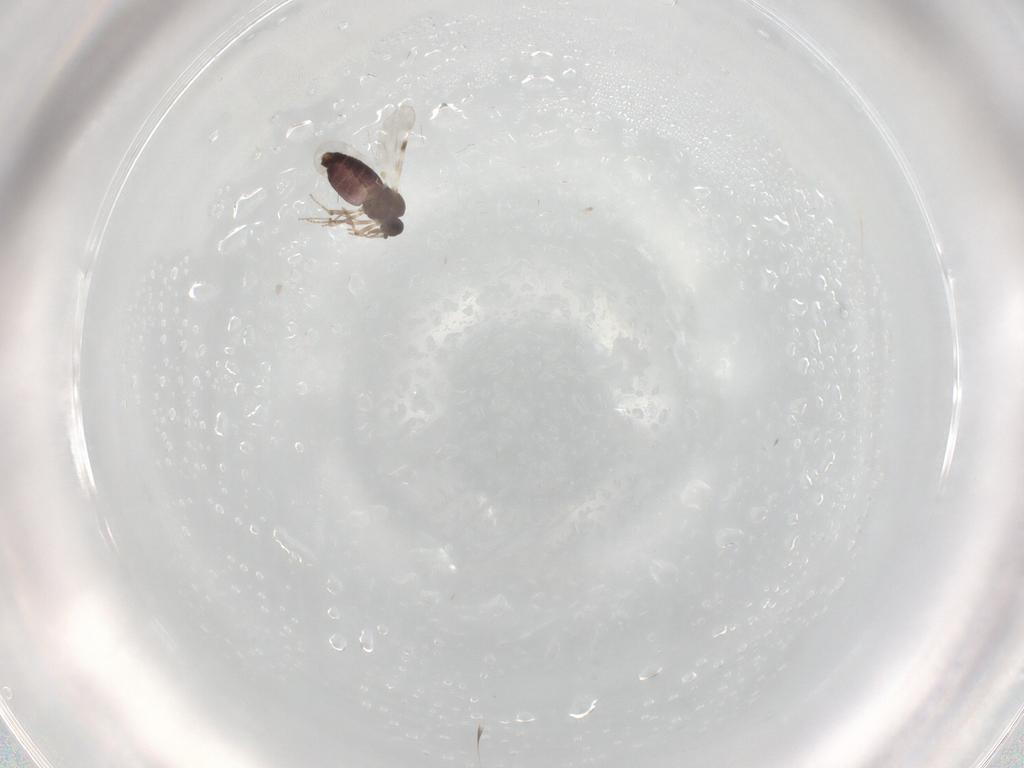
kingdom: Animalia
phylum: Arthropoda
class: Insecta
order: Diptera
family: Sciaridae
